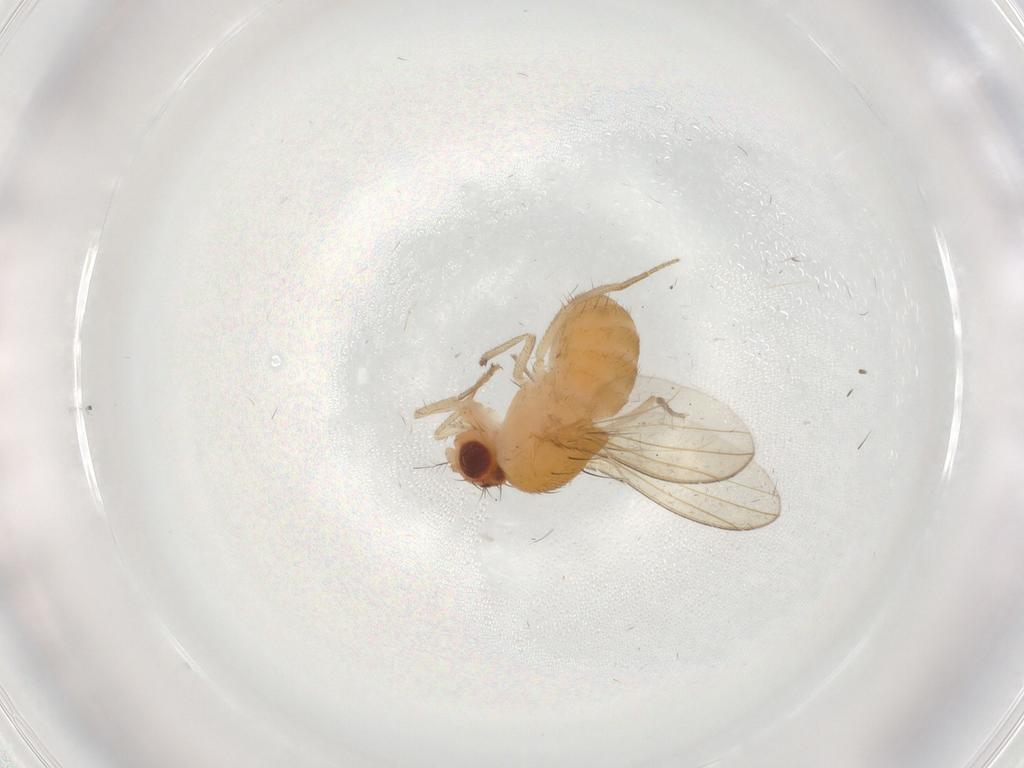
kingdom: Animalia
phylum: Arthropoda
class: Insecta
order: Diptera
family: Drosophilidae
